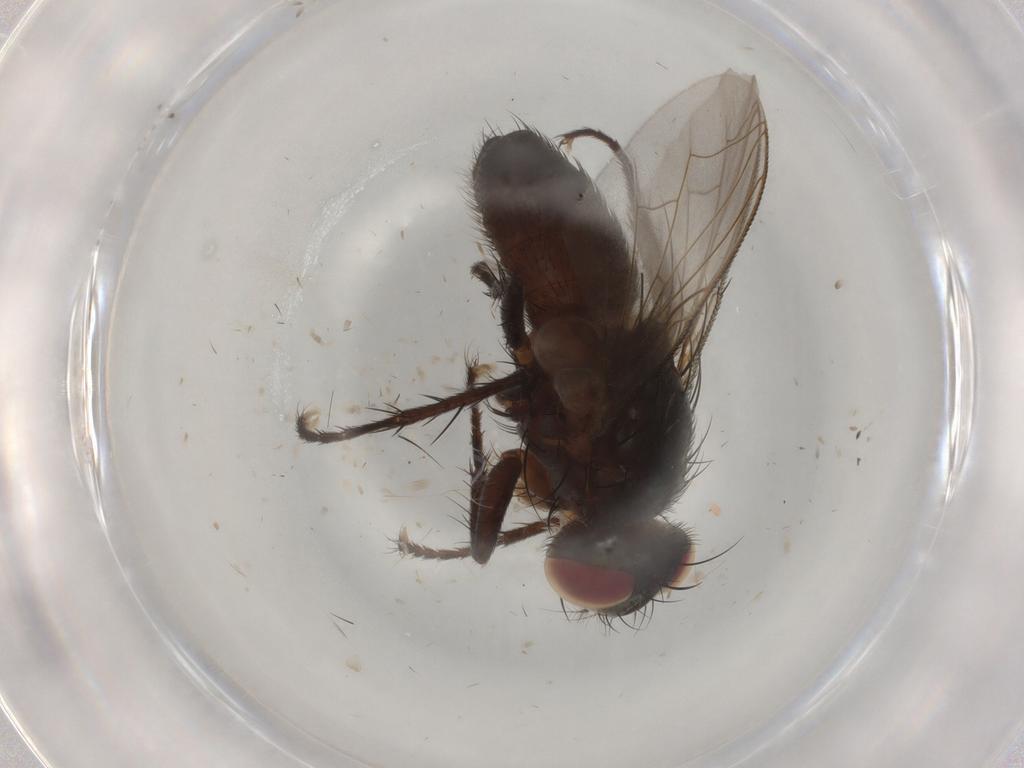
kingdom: Animalia
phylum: Arthropoda
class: Insecta
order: Diptera
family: Sarcophagidae
